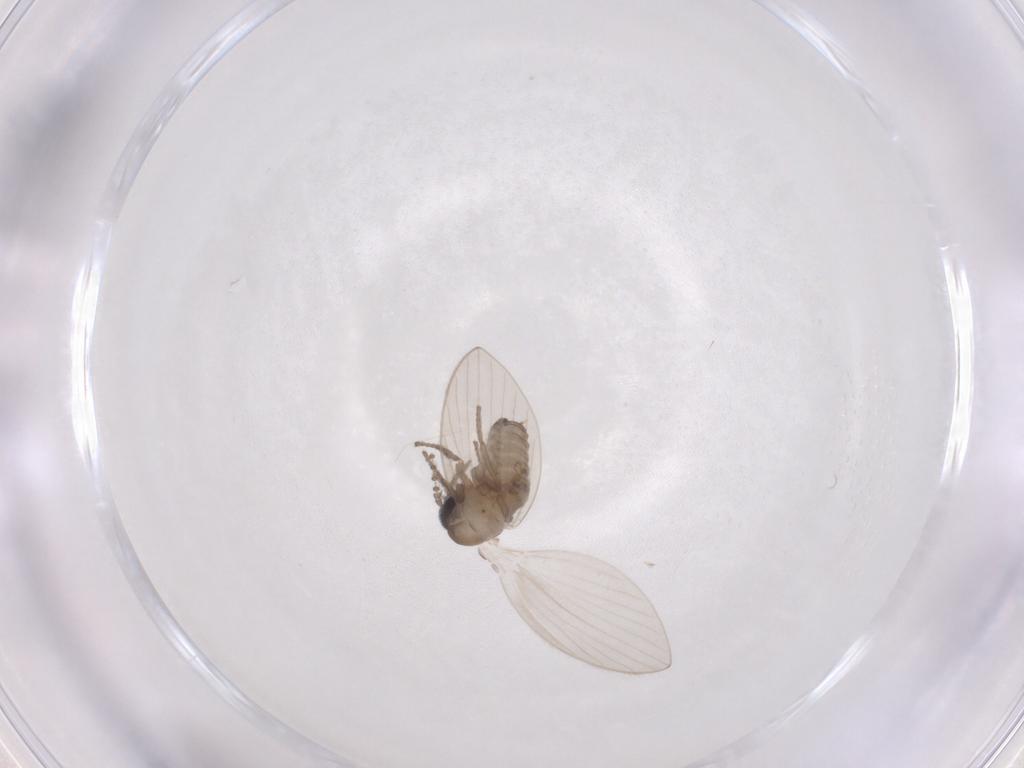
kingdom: Animalia
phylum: Arthropoda
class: Insecta
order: Diptera
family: Psychodidae
